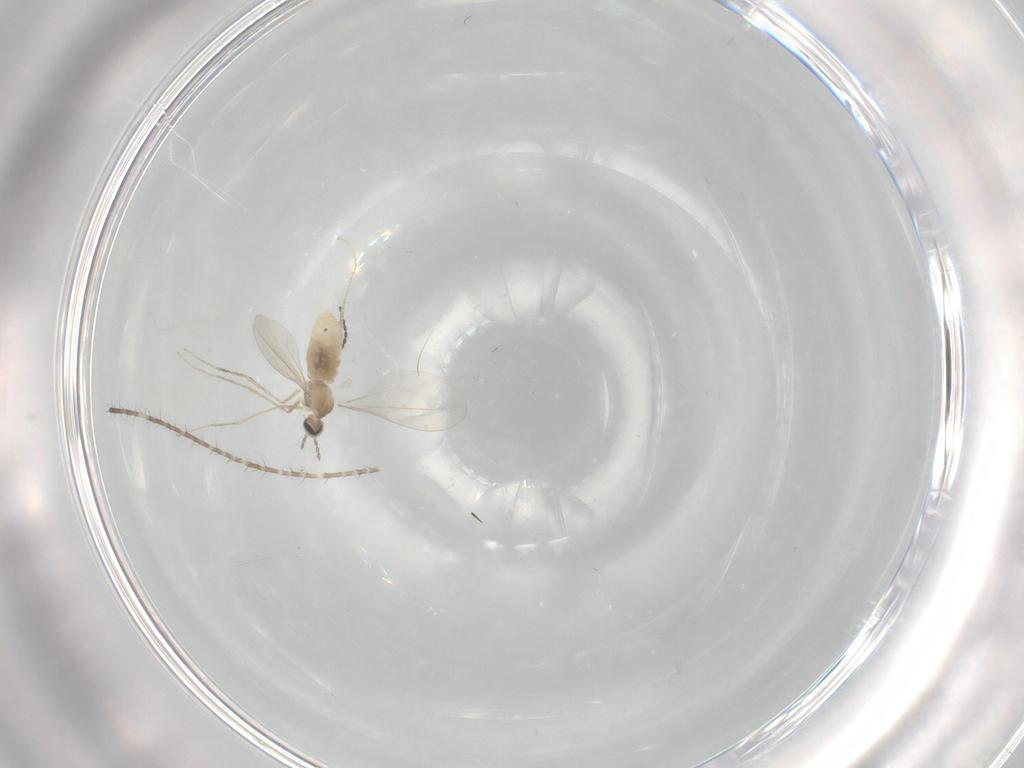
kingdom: Animalia
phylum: Arthropoda
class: Insecta
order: Diptera
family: Cecidomyiidae
